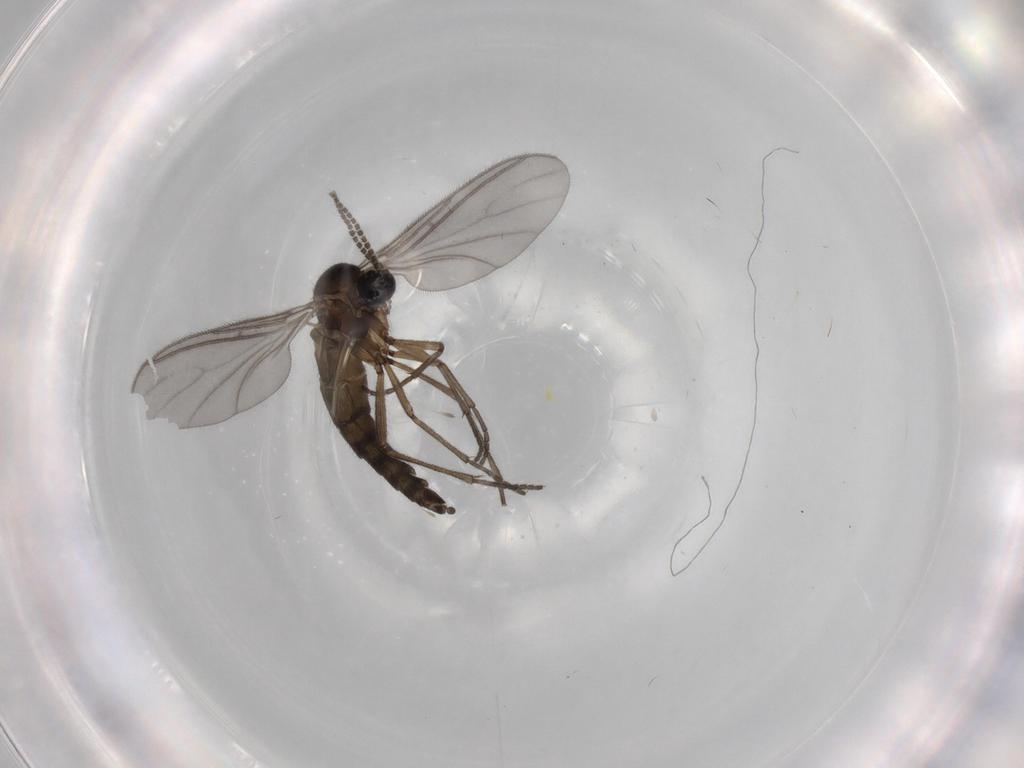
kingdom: Animalia
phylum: Arthropoda
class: Insecta
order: Diptera
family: Sciaridae
